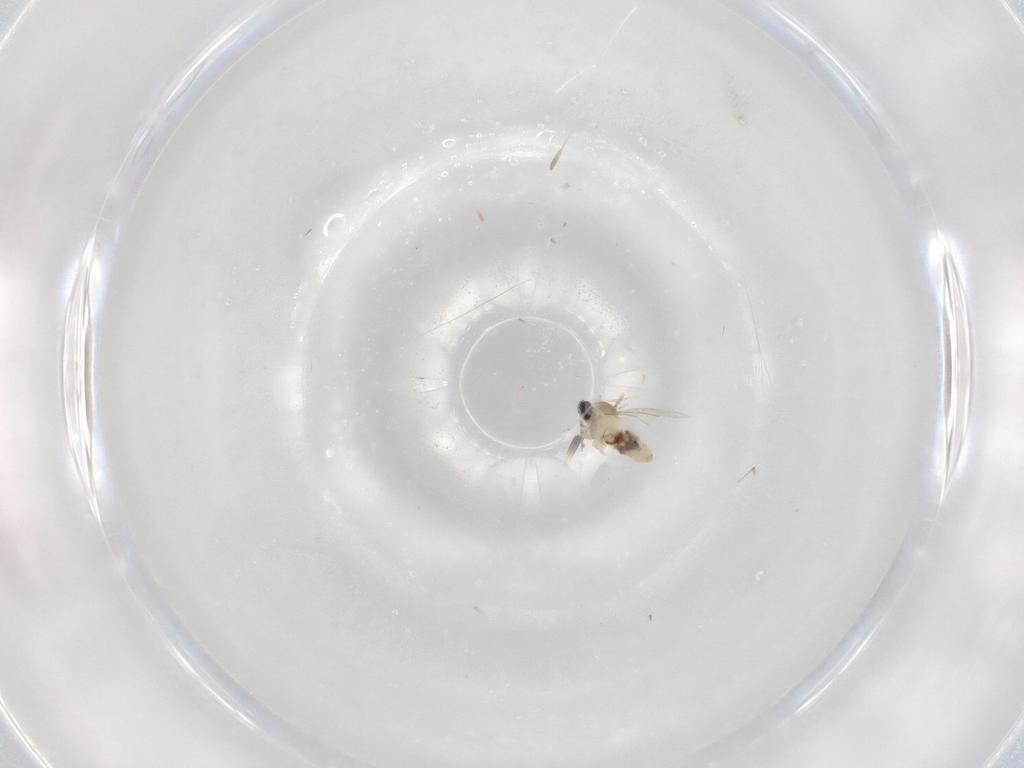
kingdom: Animalia
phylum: Arthropoda
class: Insecta
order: Diptera
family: Cecidomyiidae
